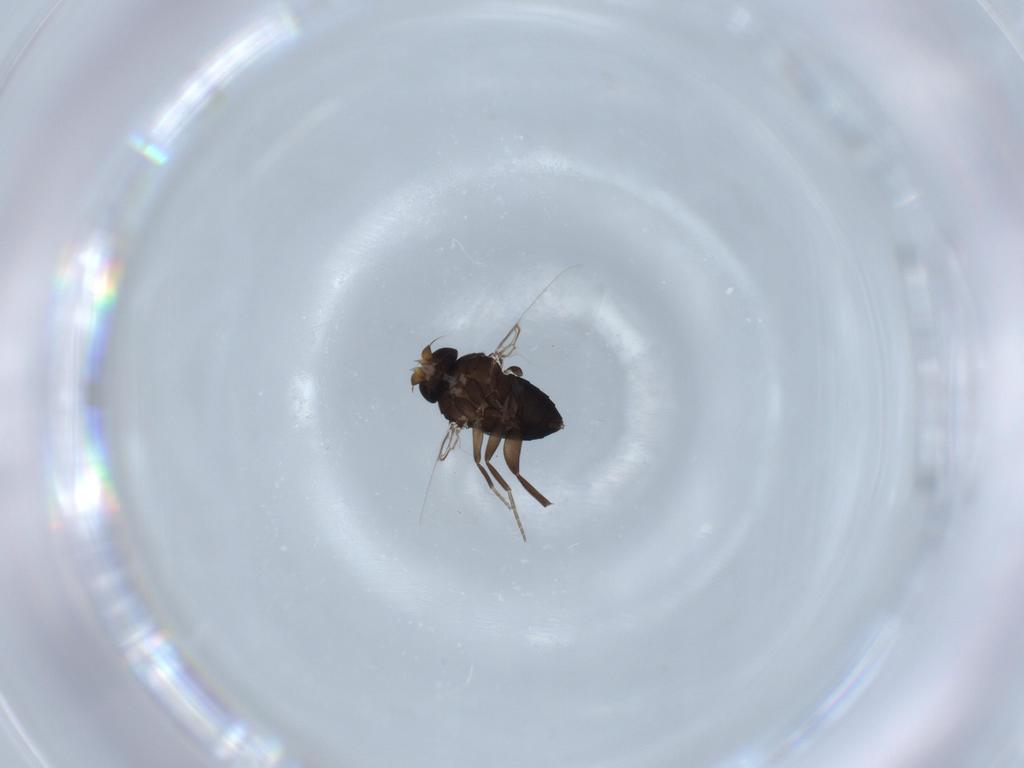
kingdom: Animalia
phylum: Arthropoda
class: Insecta
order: Diptera
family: Phoridae
